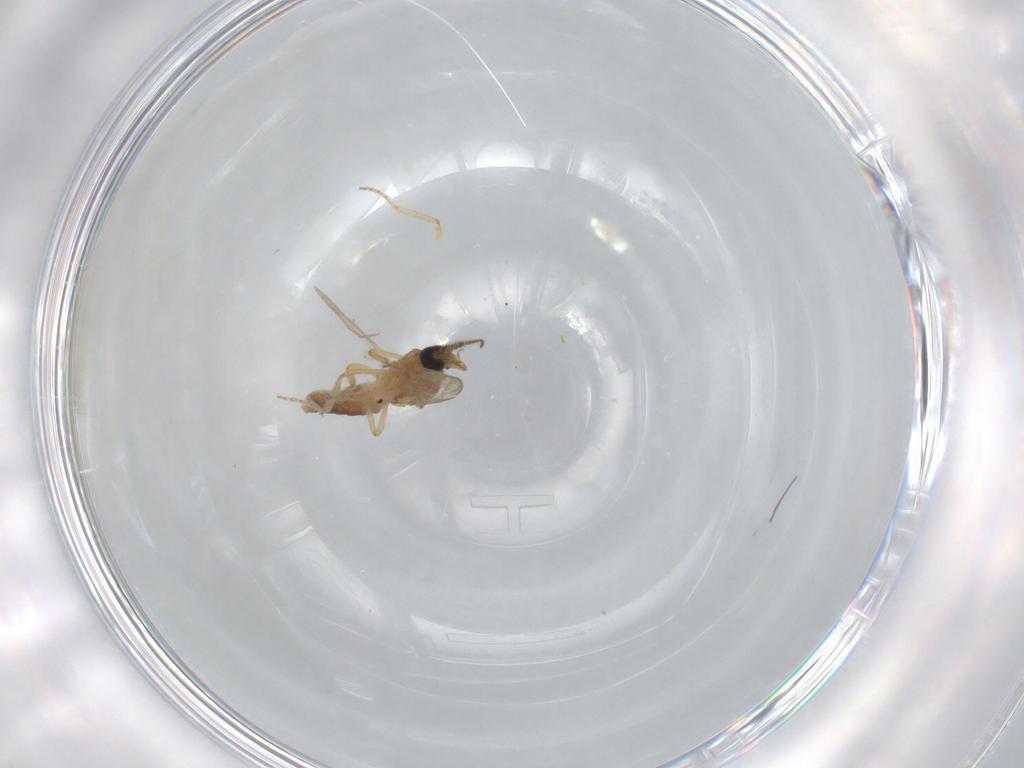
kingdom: Animalia
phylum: Arthropoda
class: Insecta
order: Diptera
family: Ceratopogonidae
